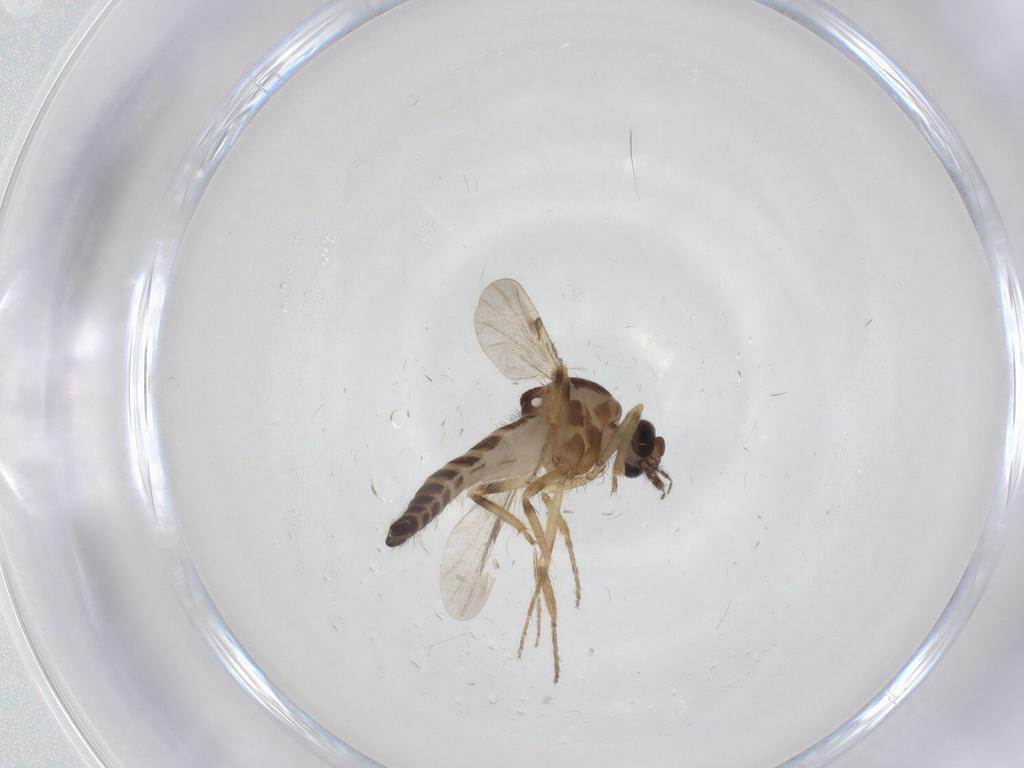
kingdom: Animalia
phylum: Arthropoda
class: Insecta
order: Diptera
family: Ceratopogonidae
